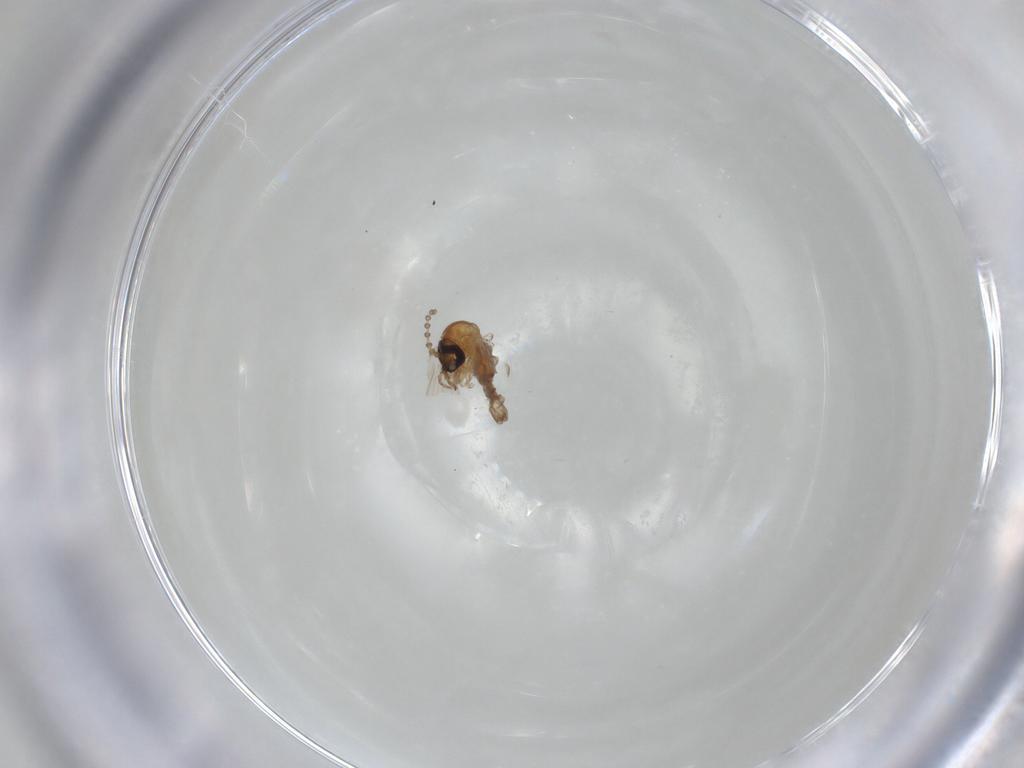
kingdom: Animalia
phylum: Arthropoda
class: Insecta
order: Diptera
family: Psychodidae
